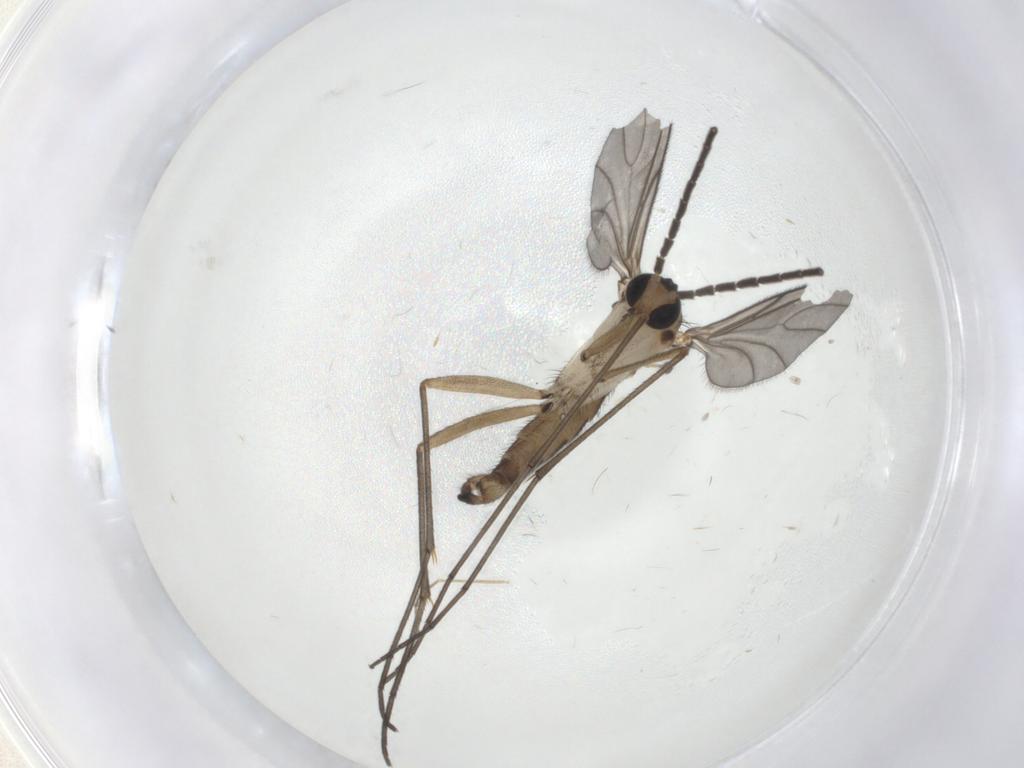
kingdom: Animalia
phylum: Arthropoda
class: Insecta
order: Diptera
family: Sciaridae
